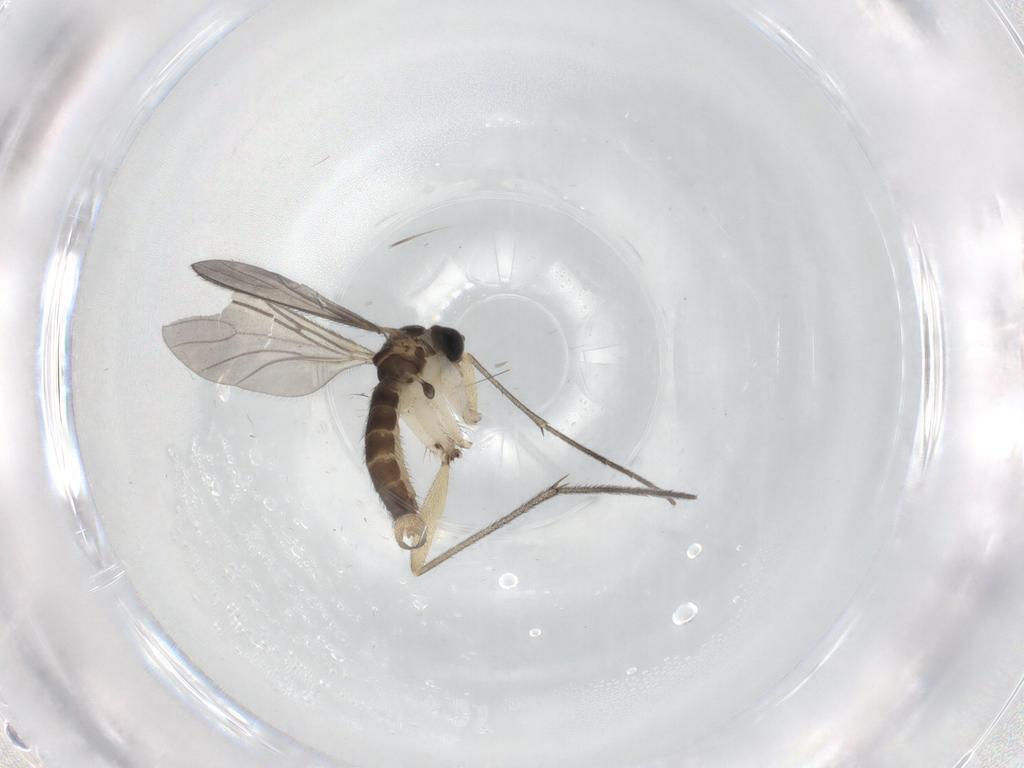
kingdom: Animalia
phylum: Arthropoda
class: Insecta
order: Diptera
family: Sciaridae
